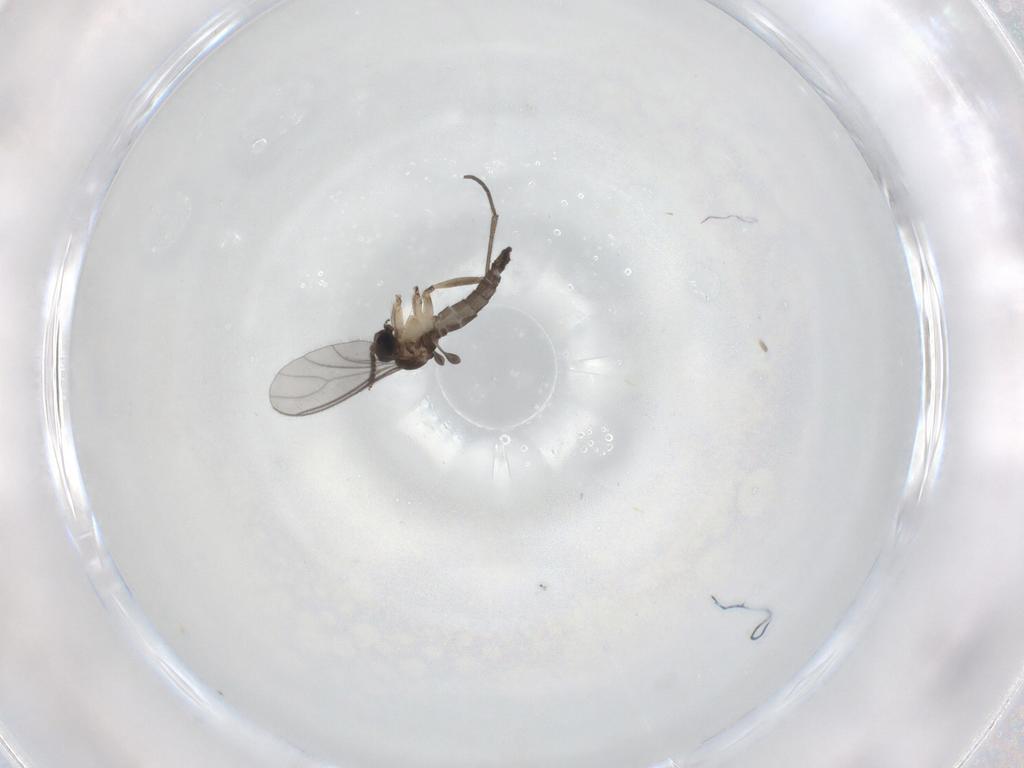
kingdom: Animalia
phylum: Arthropoda
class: Insecta
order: Diptera
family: Sciaridae
